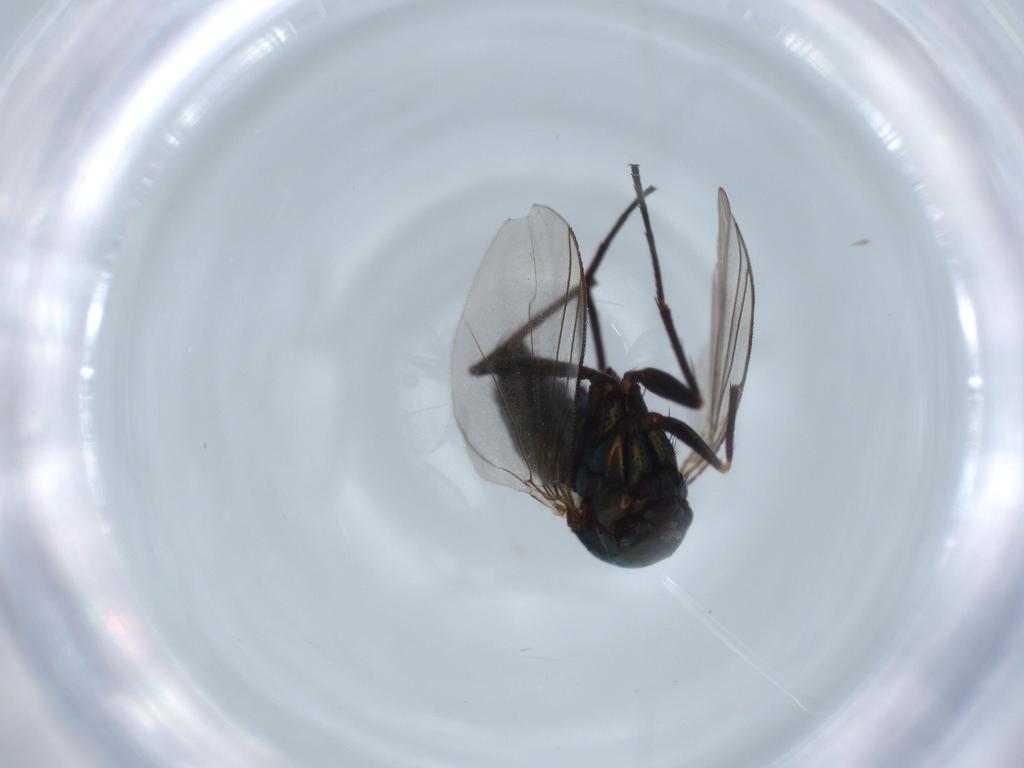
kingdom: Animalia
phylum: Arthropoda
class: Insecta
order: Diptera
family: Dolichopodidae
